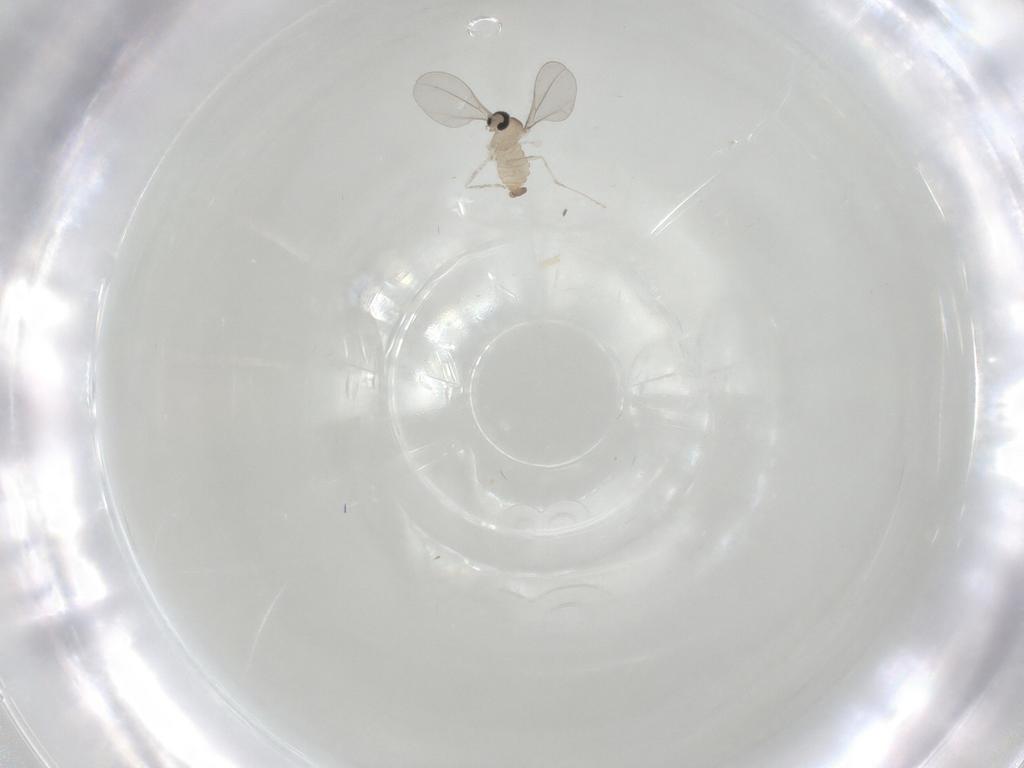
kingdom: Animalia
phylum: Arthropoda
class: Insecta
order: Diptera
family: Cecidomyiidae
